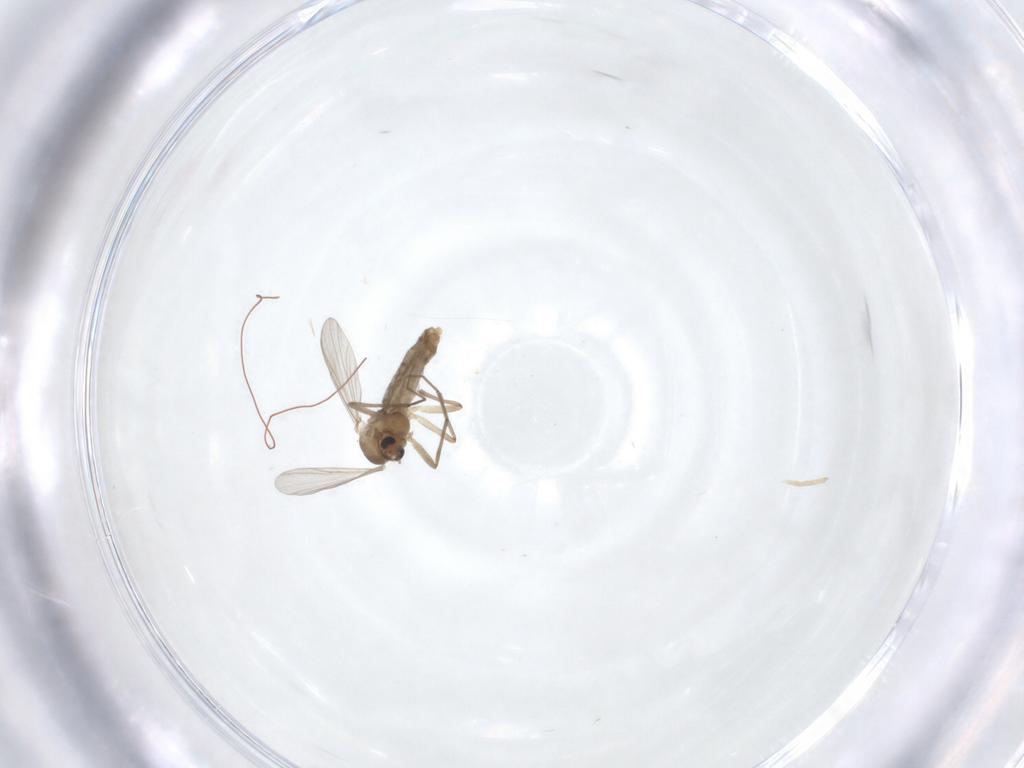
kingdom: Animalia
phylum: Arthropoda
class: Insecta
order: Diptera
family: Chironomidae
